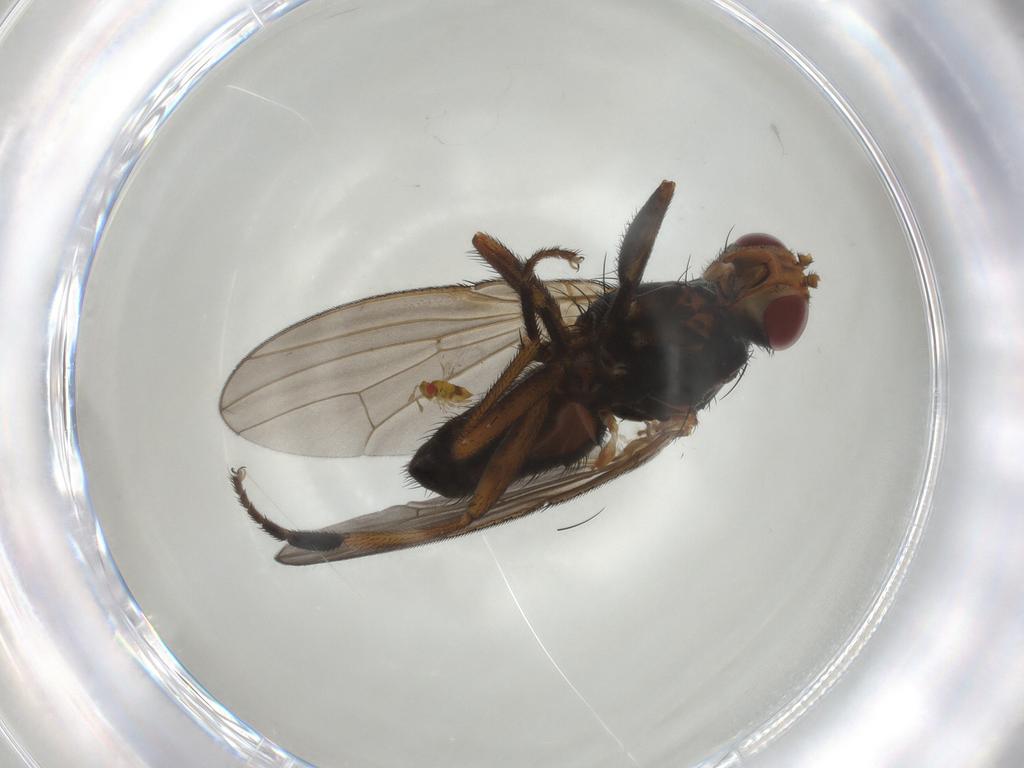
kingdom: Animalia
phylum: Arthropoda
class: Insecta
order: Diptera
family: Heleomyzidae
